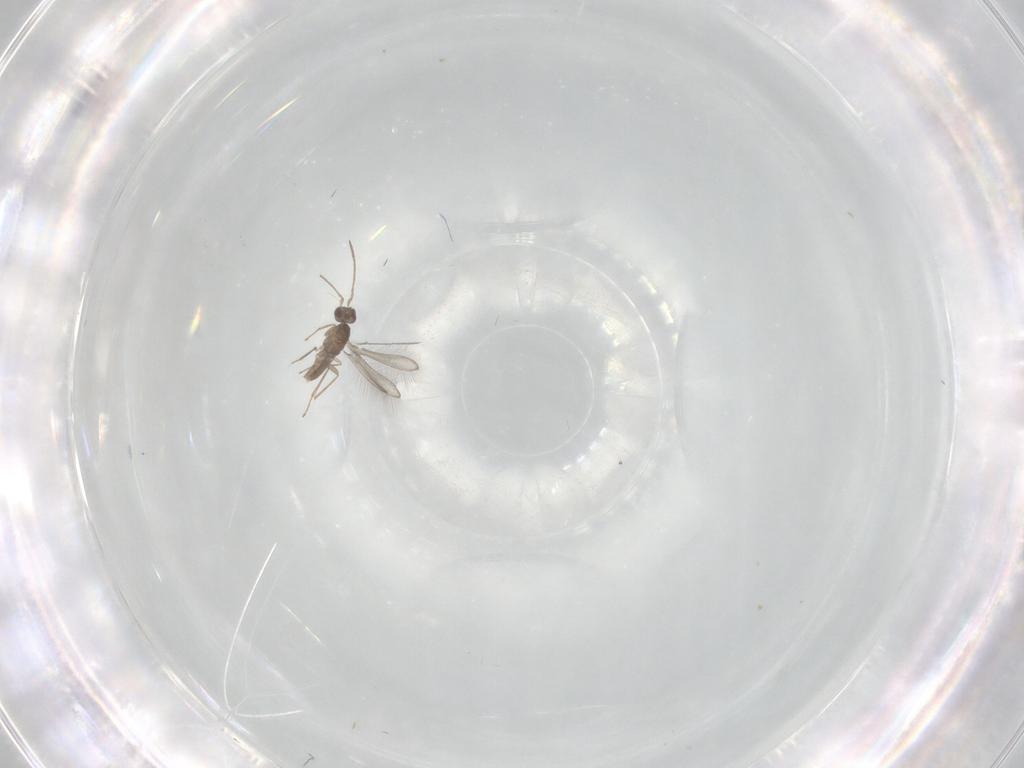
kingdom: Animalia
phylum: Arthropoda
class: Insecta
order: Hymenoptera
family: Mymaridae
